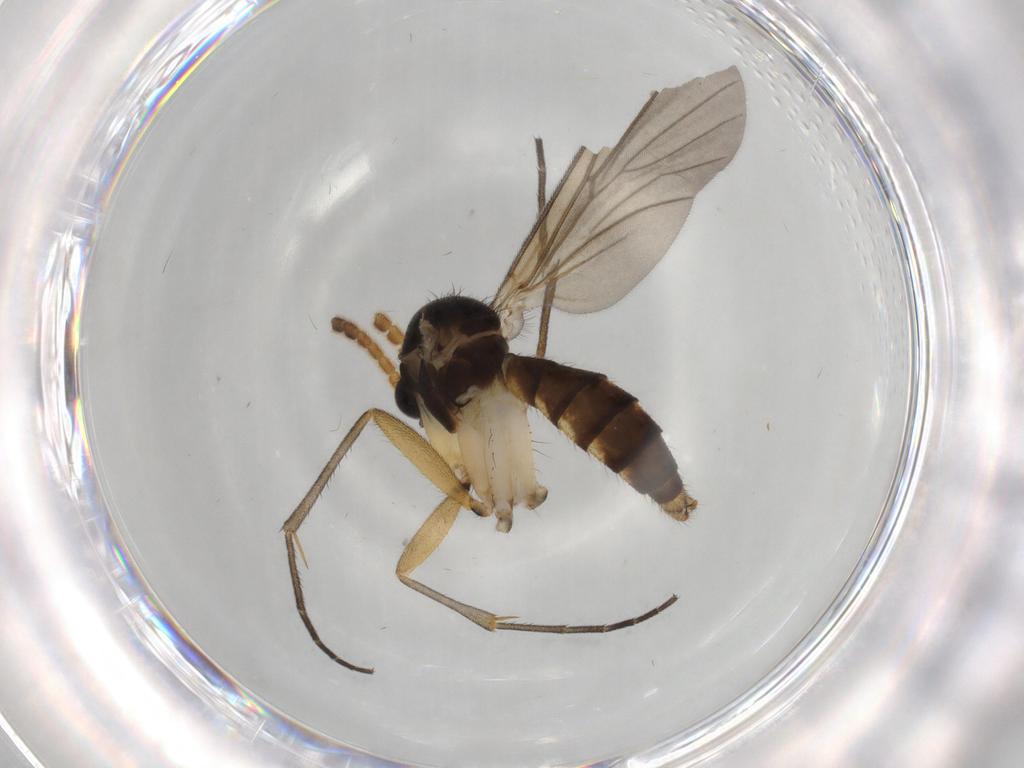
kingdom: Animalia
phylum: Arthropoda
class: Insecta
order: Diptera
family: Mycetophilidae
